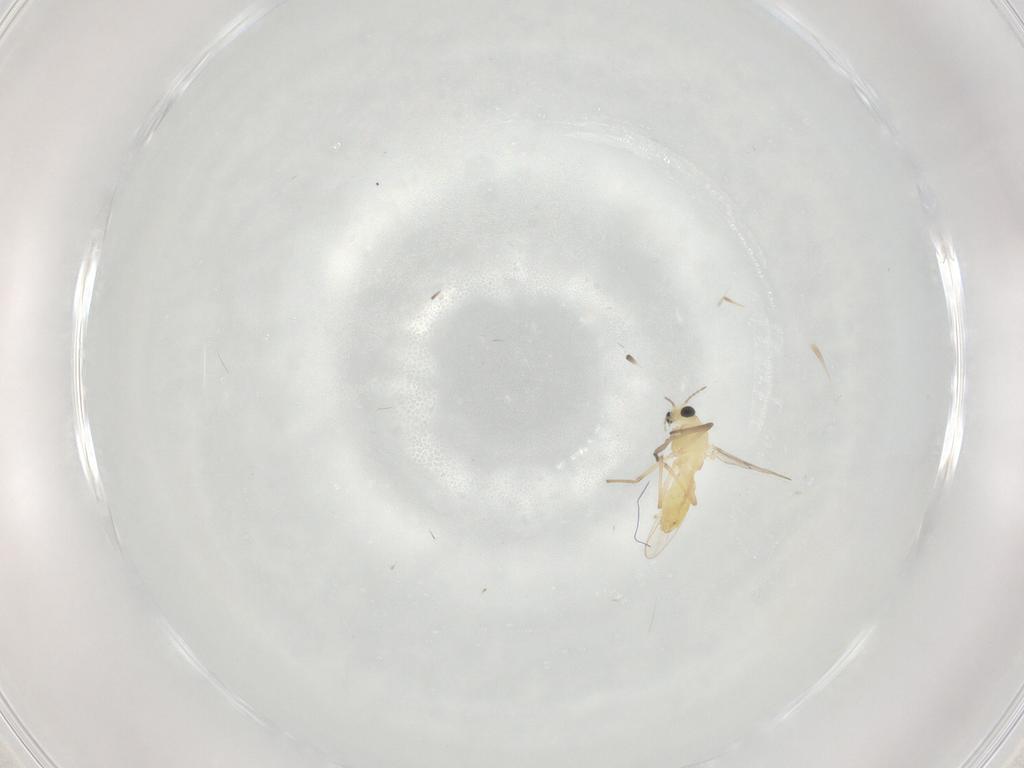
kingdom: Animalia
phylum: Arthropoda
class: Insecta
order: Diptera
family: Chironomidae
